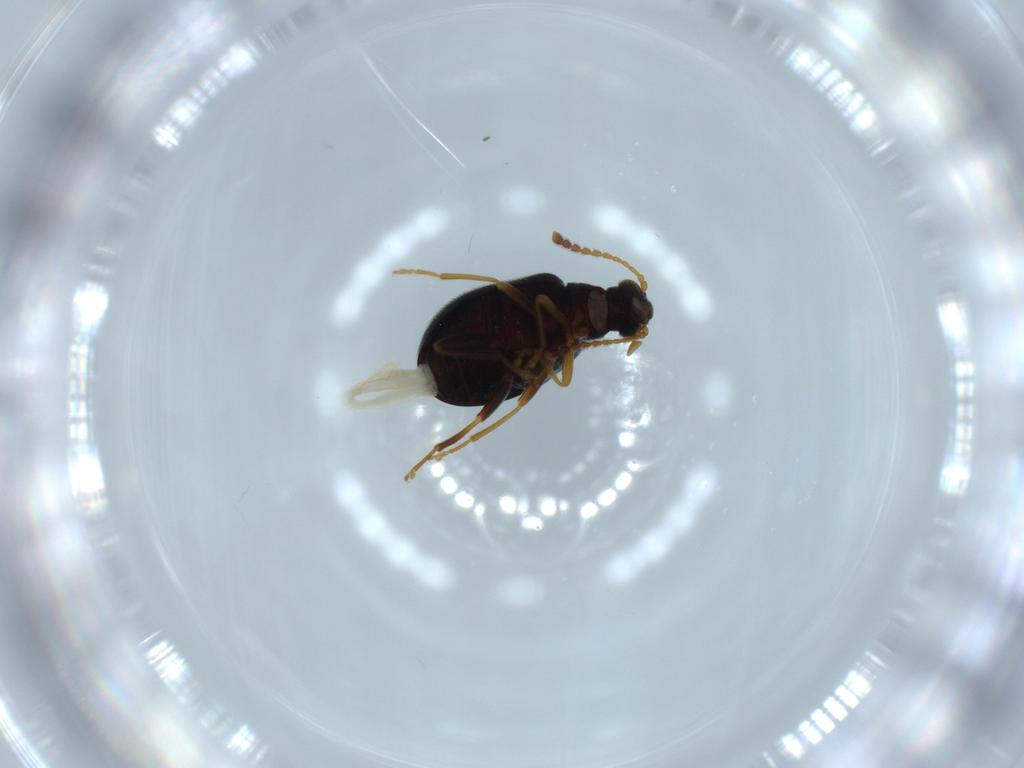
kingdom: Animalia
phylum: Arthropoda
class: Insecta
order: Coleoptera
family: Aderidae
